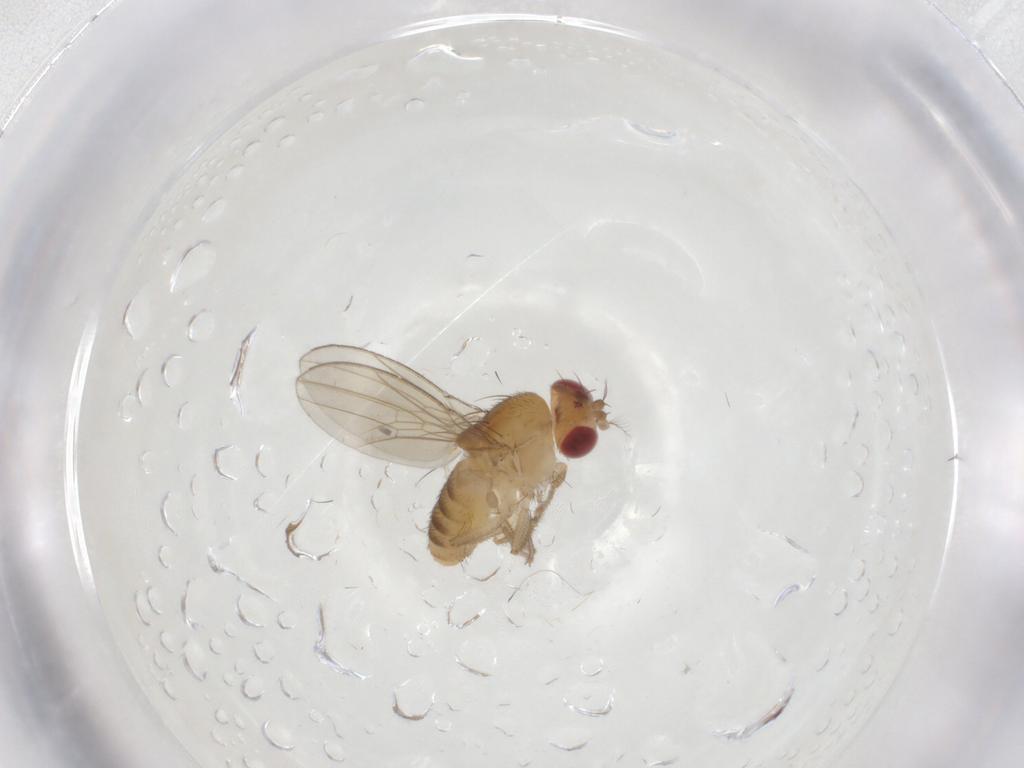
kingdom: Animalia
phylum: Arthropoda
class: Insecta
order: Diptera
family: Drosophilidae
